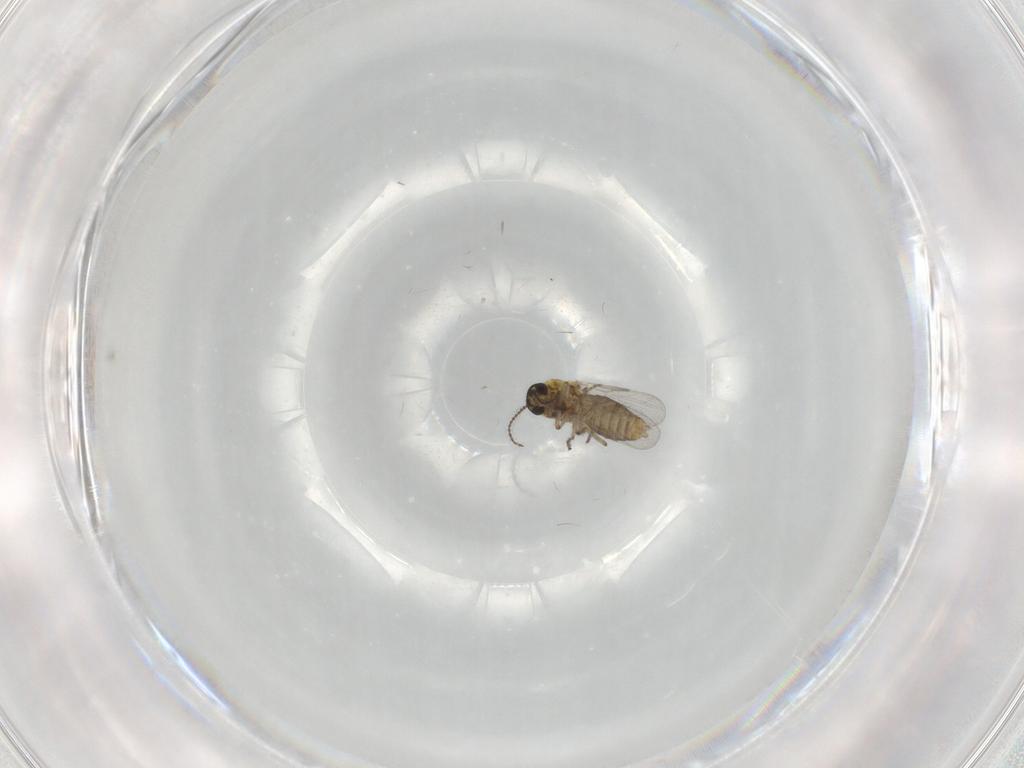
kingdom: Animalia
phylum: Arthropoda
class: Insecta
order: Diptera
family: Ceratopogonidae
